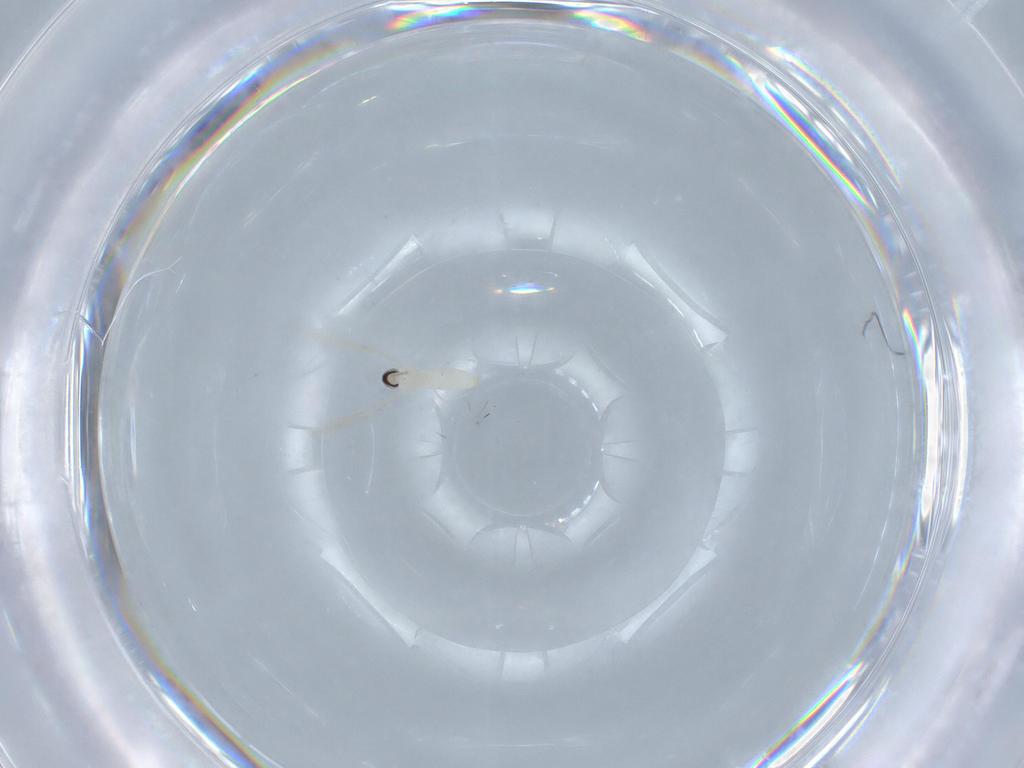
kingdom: Animalia
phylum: Arthropoda
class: Insecta
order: Diptera
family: Cecidomyiidae
